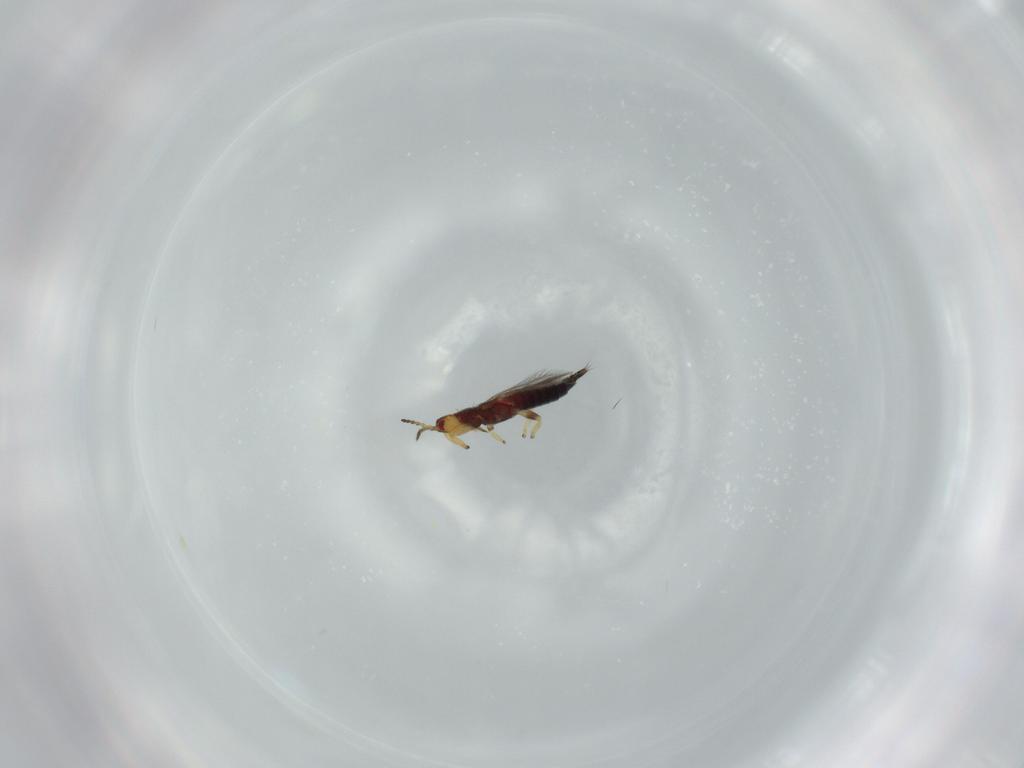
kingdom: Animalia
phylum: Arthropoda
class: Insecta
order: Thysanoptera
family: Phlaeothripidae
